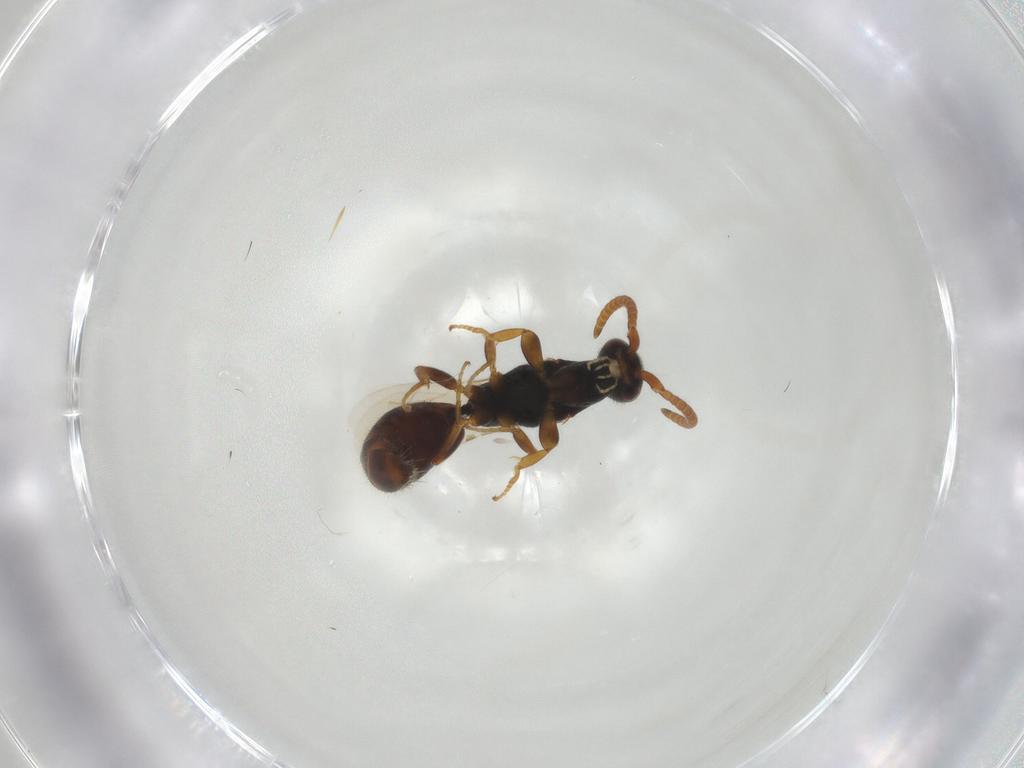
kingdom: Animalia
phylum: Arthropoda
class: Insecta
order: Hymenoptera
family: Bethylidae
